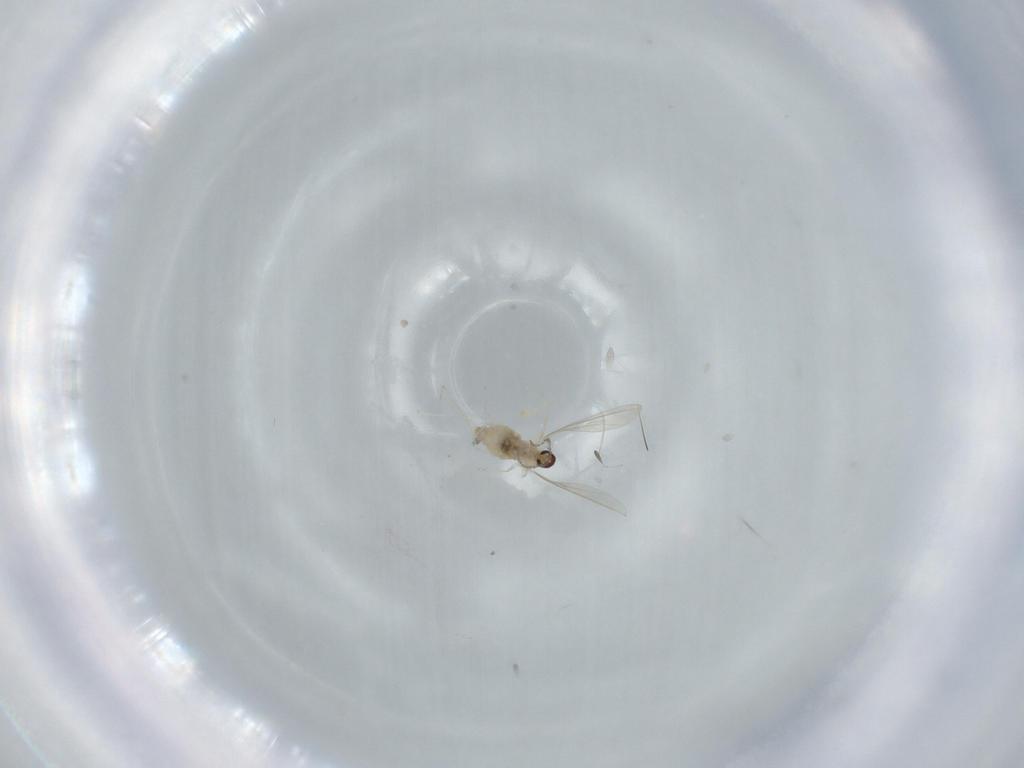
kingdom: Animalia
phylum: Arthropoda
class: Insecta
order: Diptera
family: Cecidomyiidae
